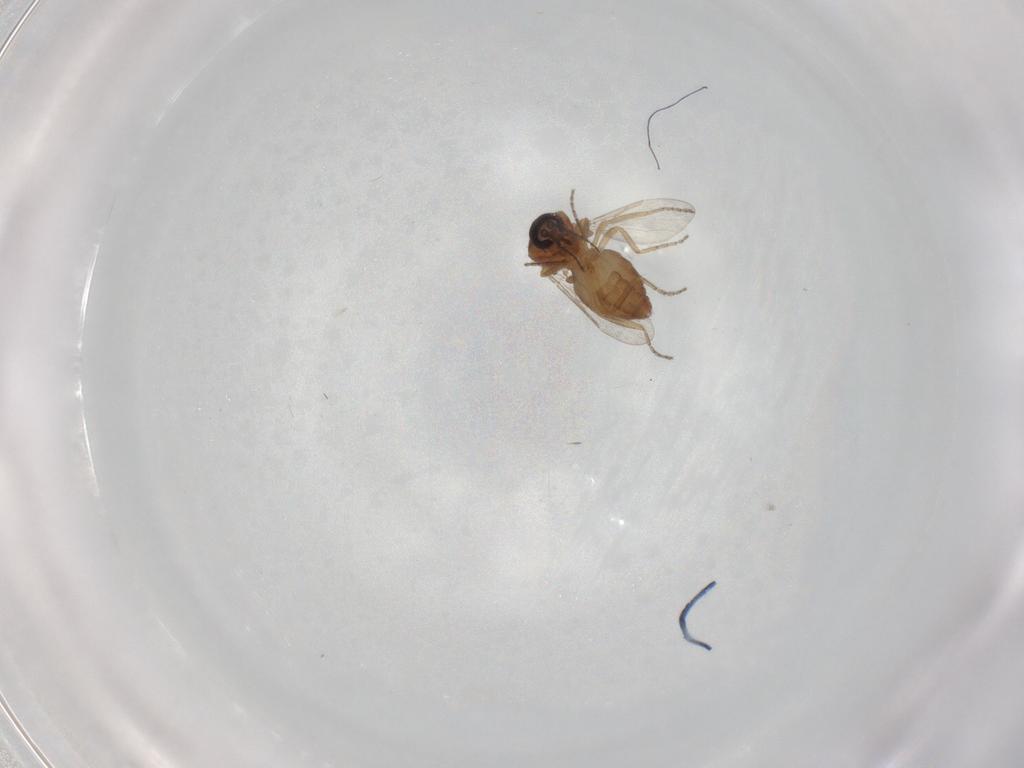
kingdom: Animalia
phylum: Arthropoda
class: Insecta
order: Diptera
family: Ceratopogonidae
